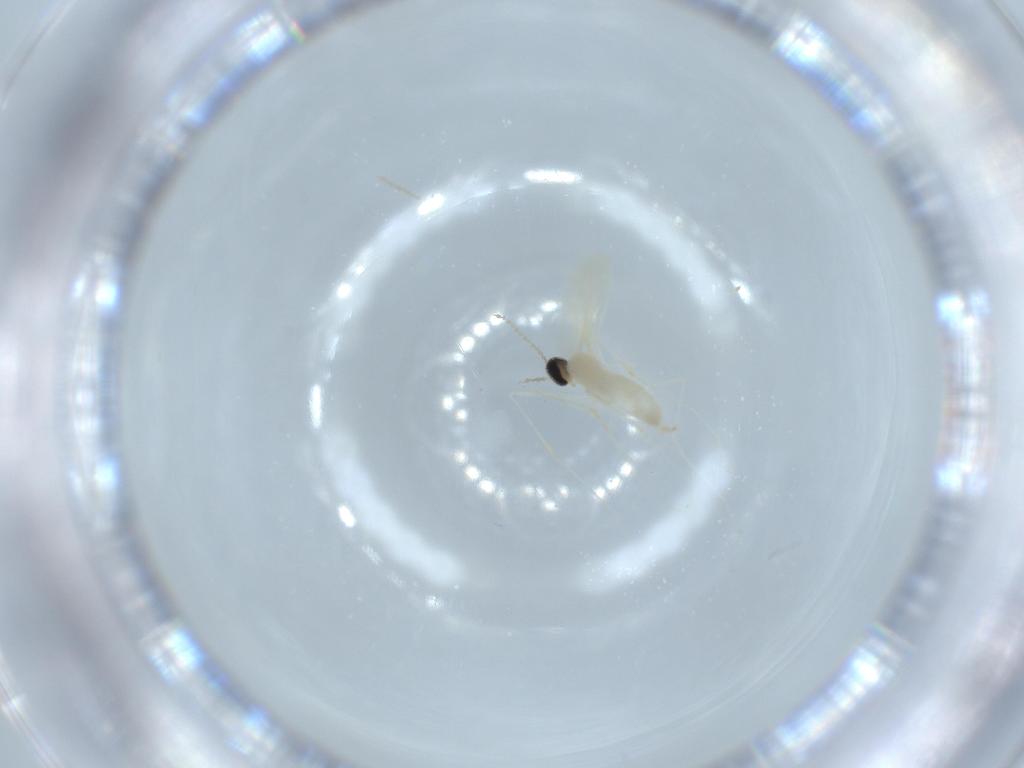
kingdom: Animalia
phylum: Arthropoda
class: Insecta
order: Diptera
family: Cecidomyiidae
